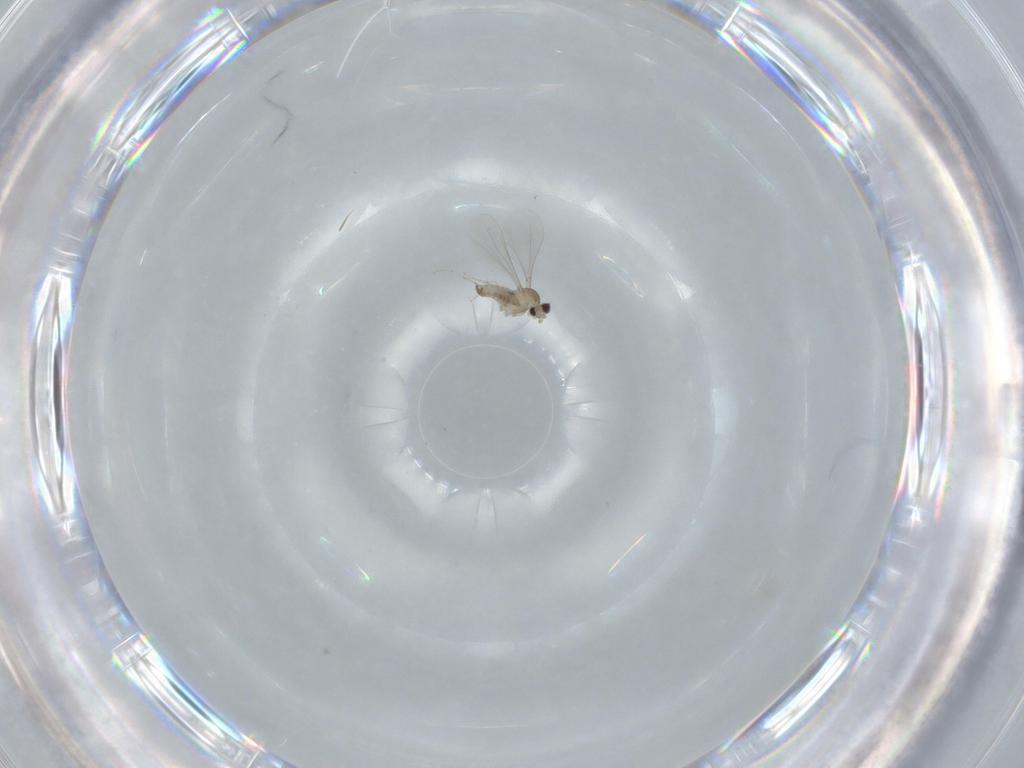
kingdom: Animalia
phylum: Arthropoda
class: Insecta
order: Diptera
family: Cecidomyiidae
